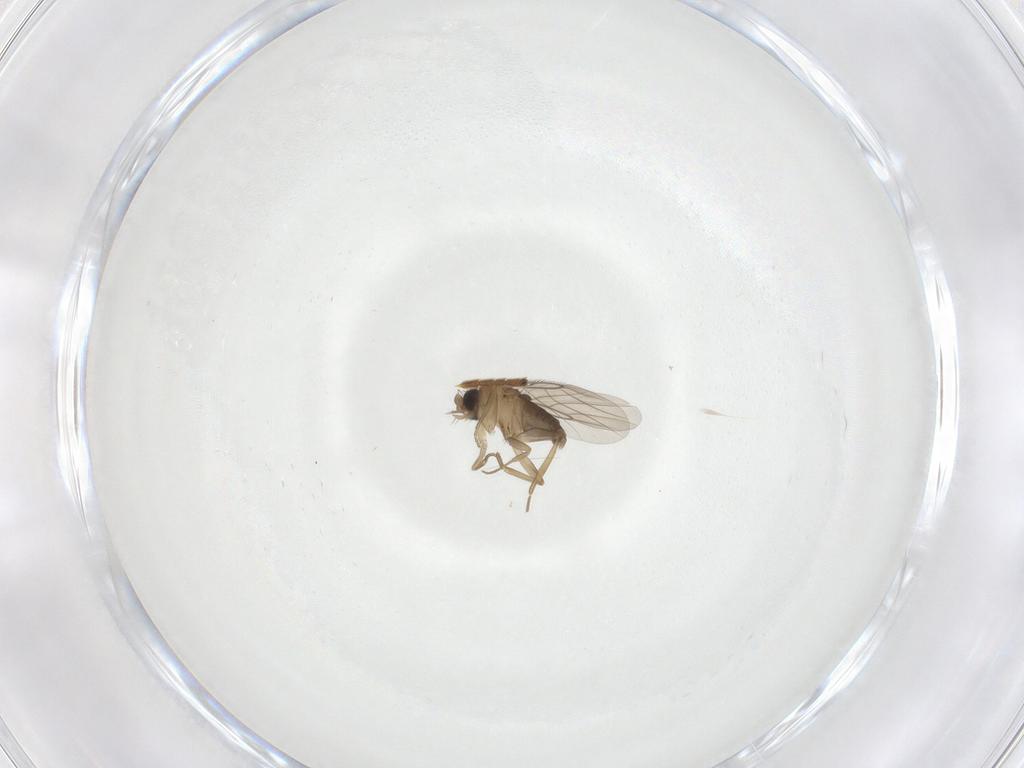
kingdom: Animalia
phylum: Arthropoda
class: Insecta
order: Diptera
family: Phoridae
